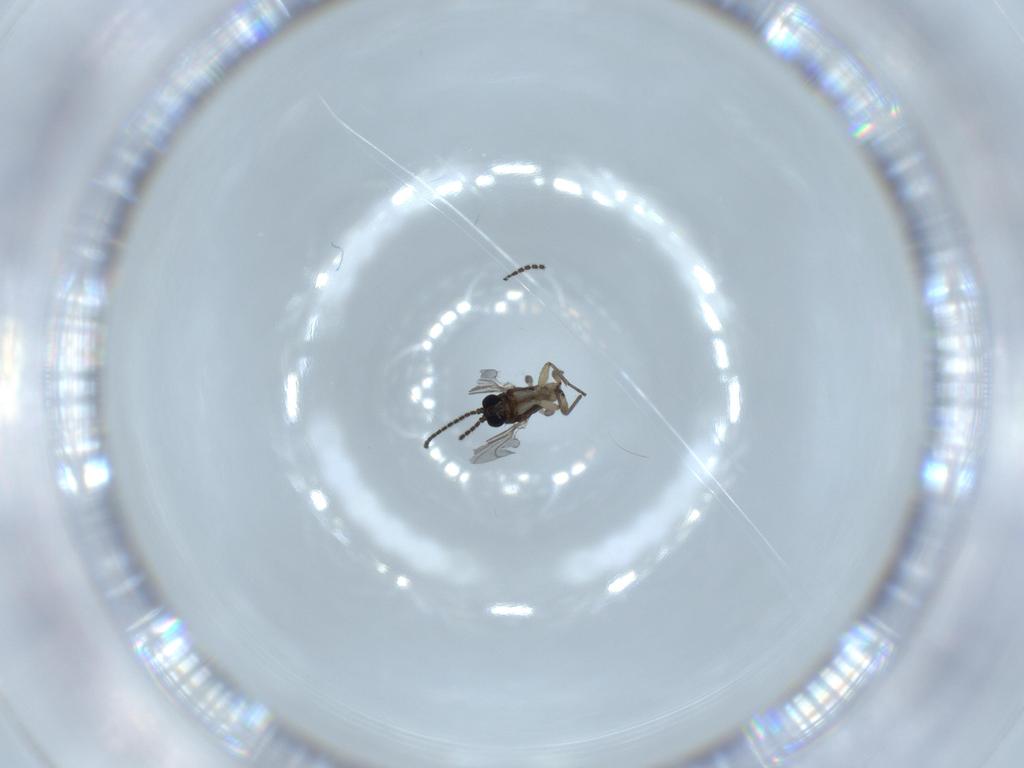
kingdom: Animalia
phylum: Arthropoda
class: Insecta
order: Diptera
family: Sciaridae
